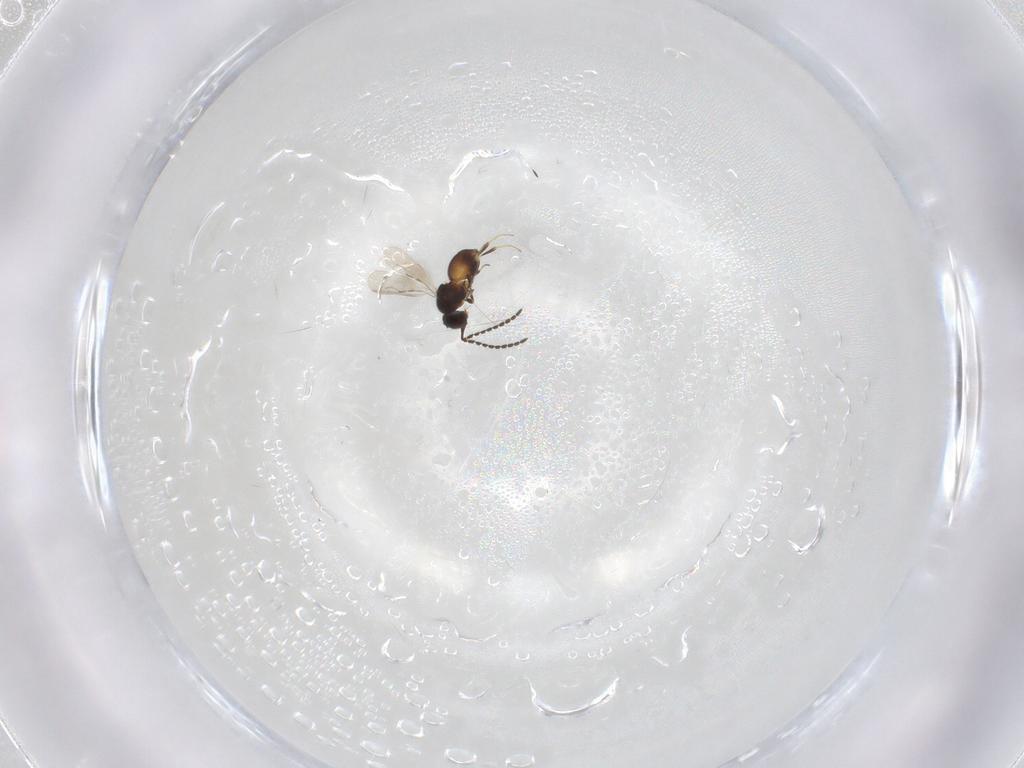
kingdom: Animalia
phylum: Arthropoda
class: Insecta
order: Hymenoptera
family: Ceraphronidae
